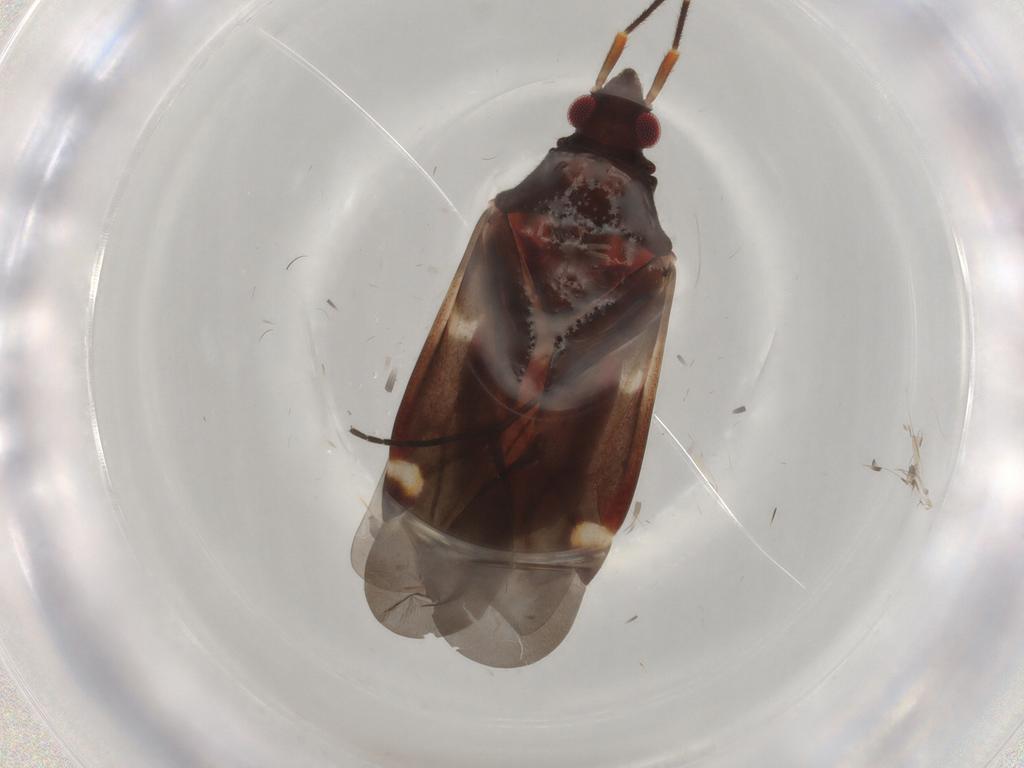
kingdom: Animalia
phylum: Arthropoda
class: Insecta
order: Hemiptera
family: Miridae
